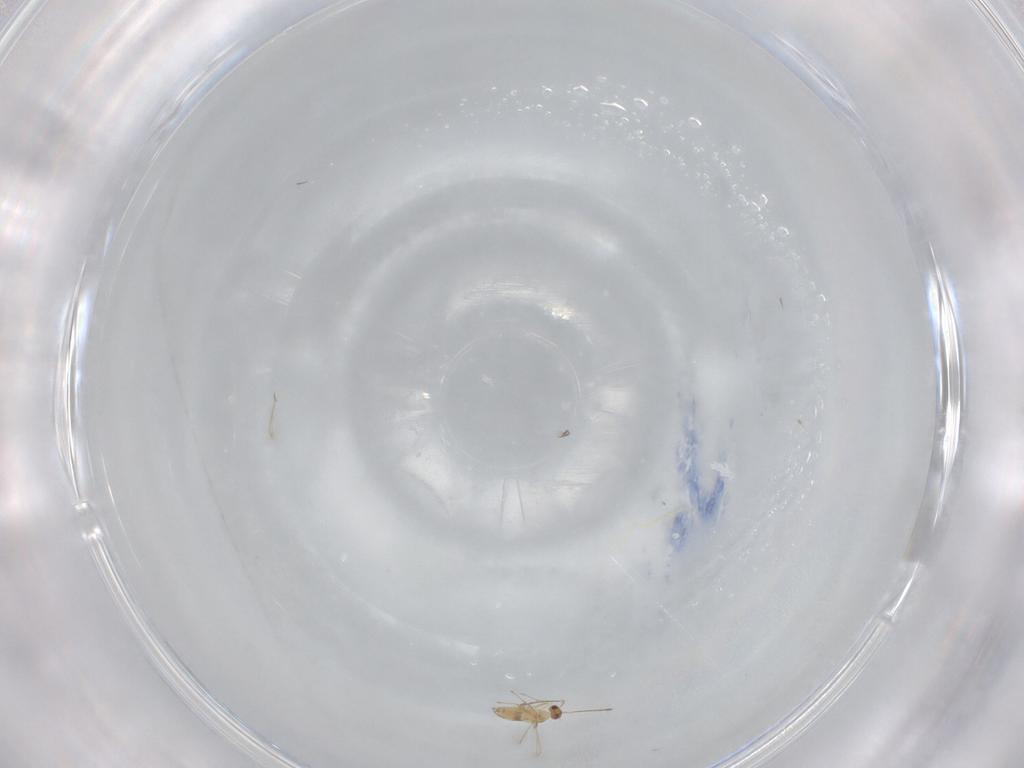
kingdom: Animalia
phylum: Arthropoda
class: Insecta
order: Hymenoptera
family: Mymaridae
